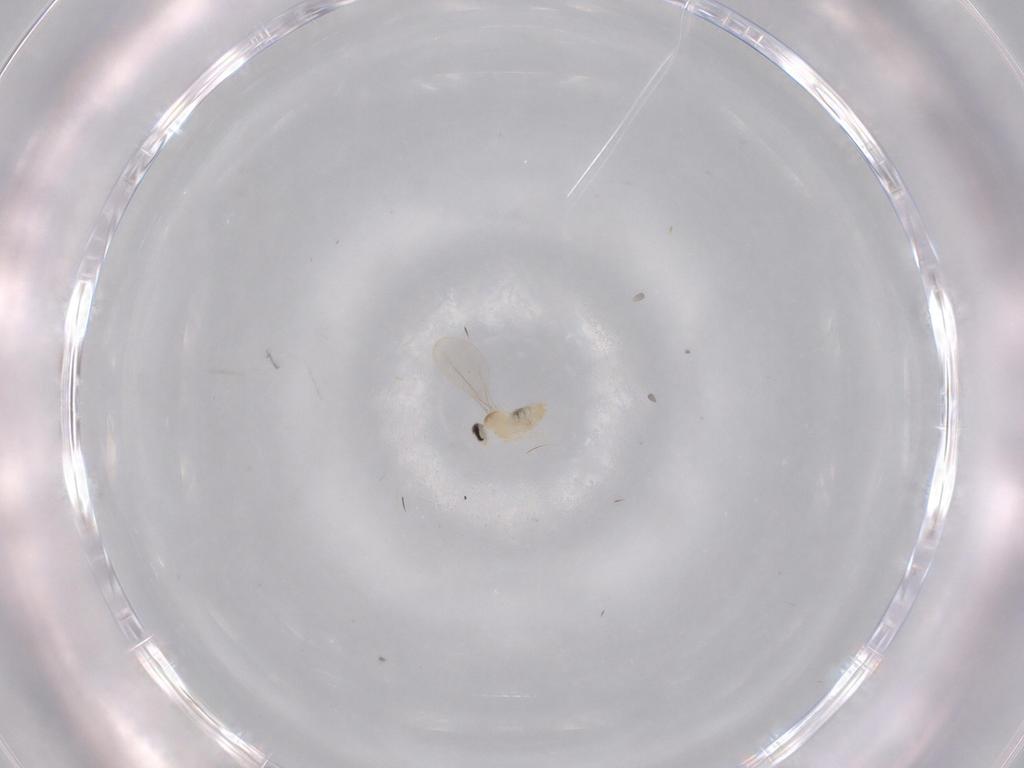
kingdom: Animalia
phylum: Arthropoda
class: Insecta
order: Diptera
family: Cecidomyiidae
